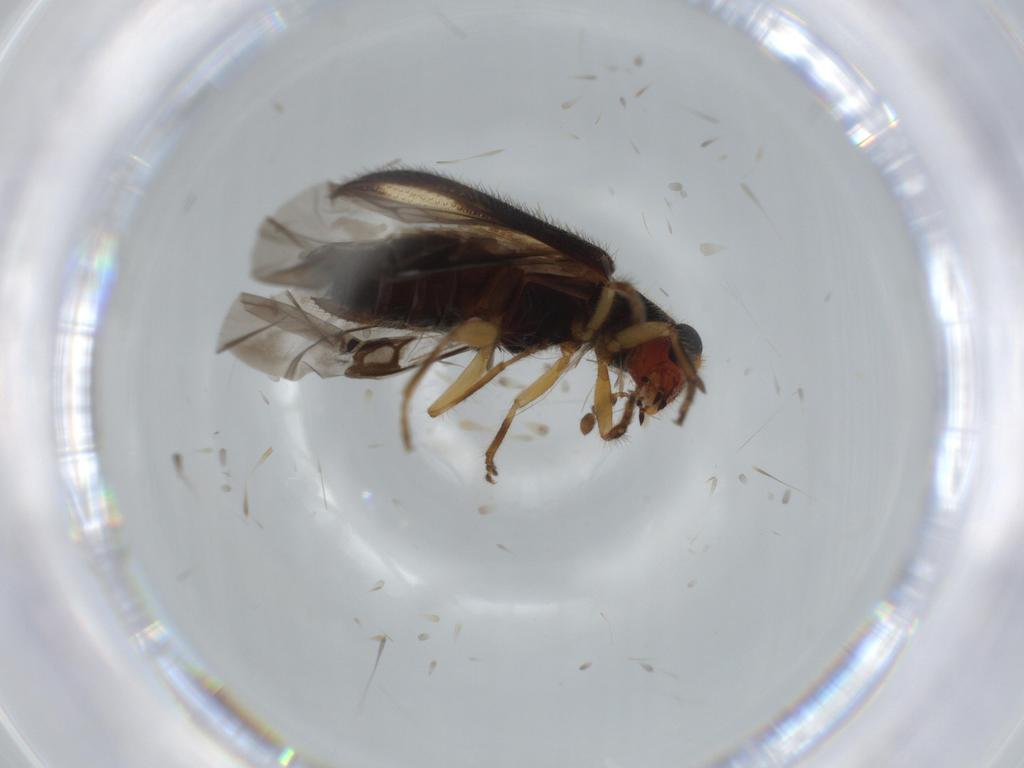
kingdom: Animalia
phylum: Arthropoda
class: Insecta
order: Coleoptera
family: Cleridae
